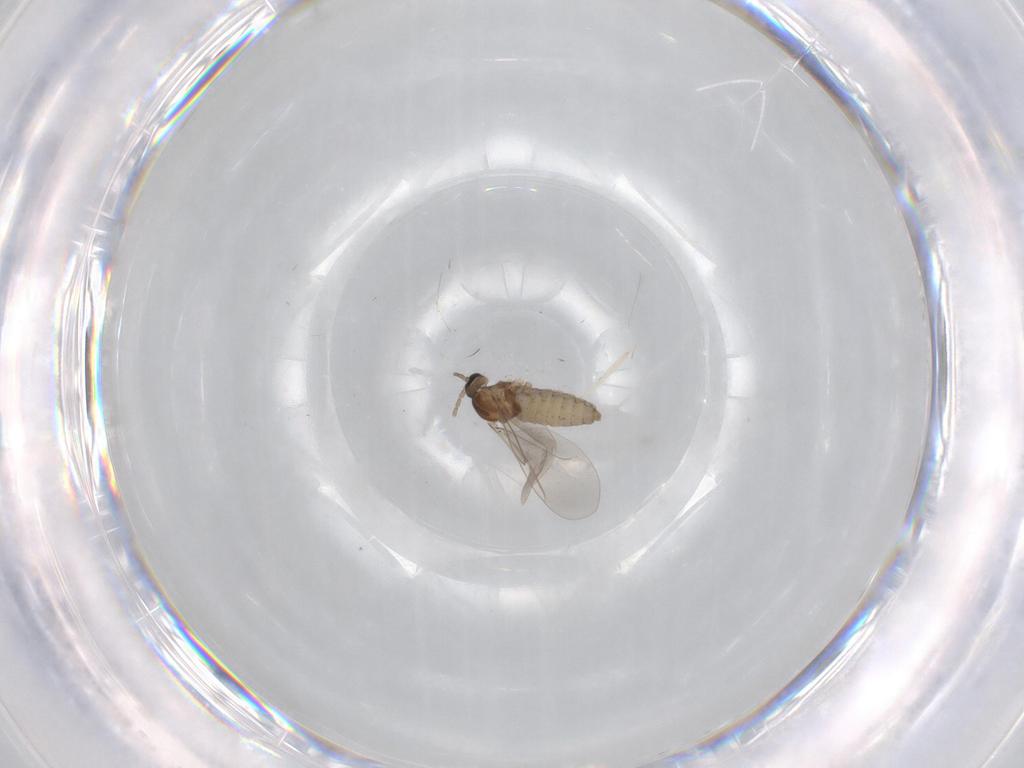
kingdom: Animalia
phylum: Arthropoda
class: Insecta
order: Diptera
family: Cecidomyiidae
